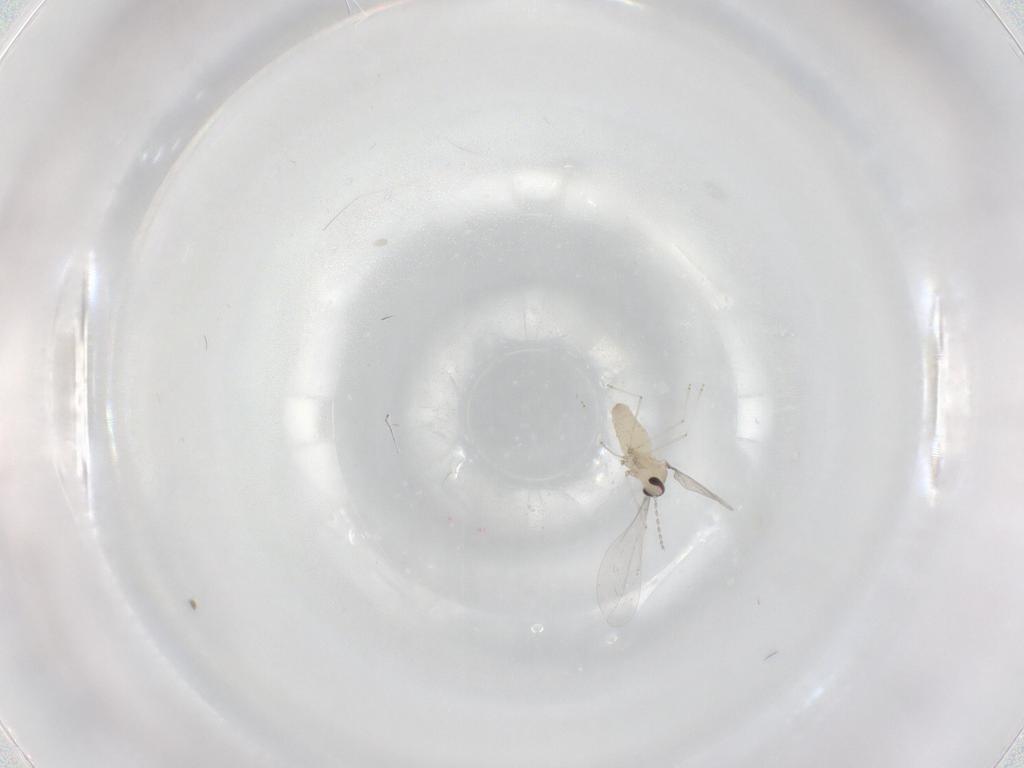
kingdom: Animalia
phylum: Arthropoda
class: Insecta
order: Diptera
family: Cecidomyiidae
